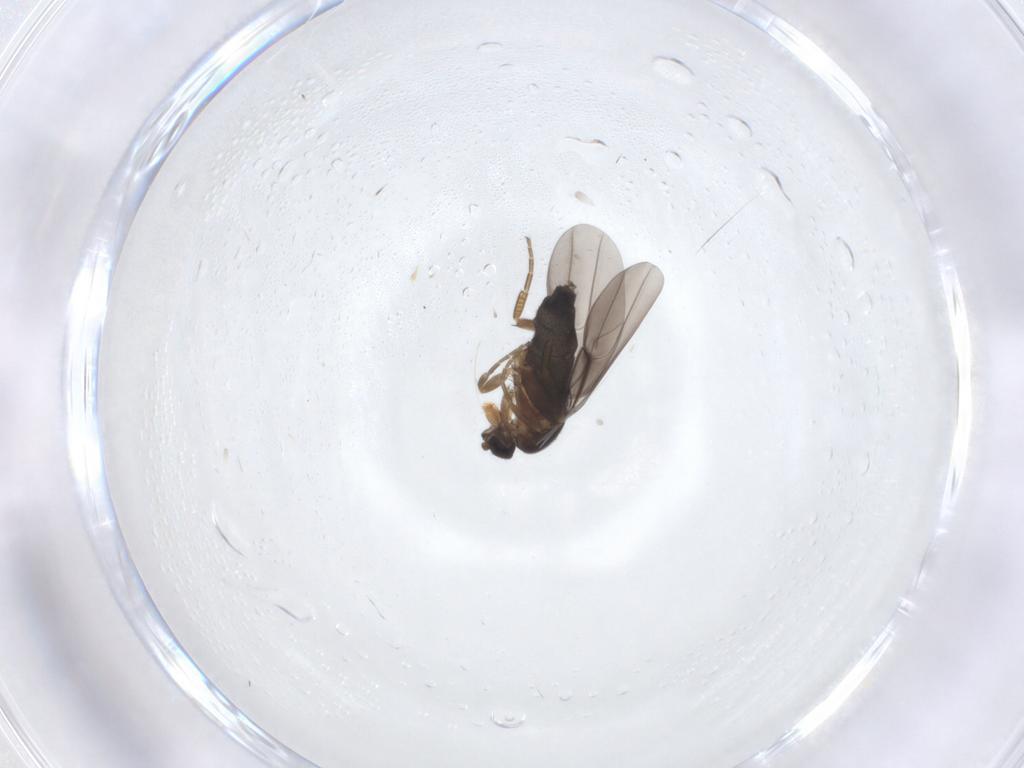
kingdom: Animalia
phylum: Arthropoda
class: Insecta
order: Diptera
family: Phoridae
